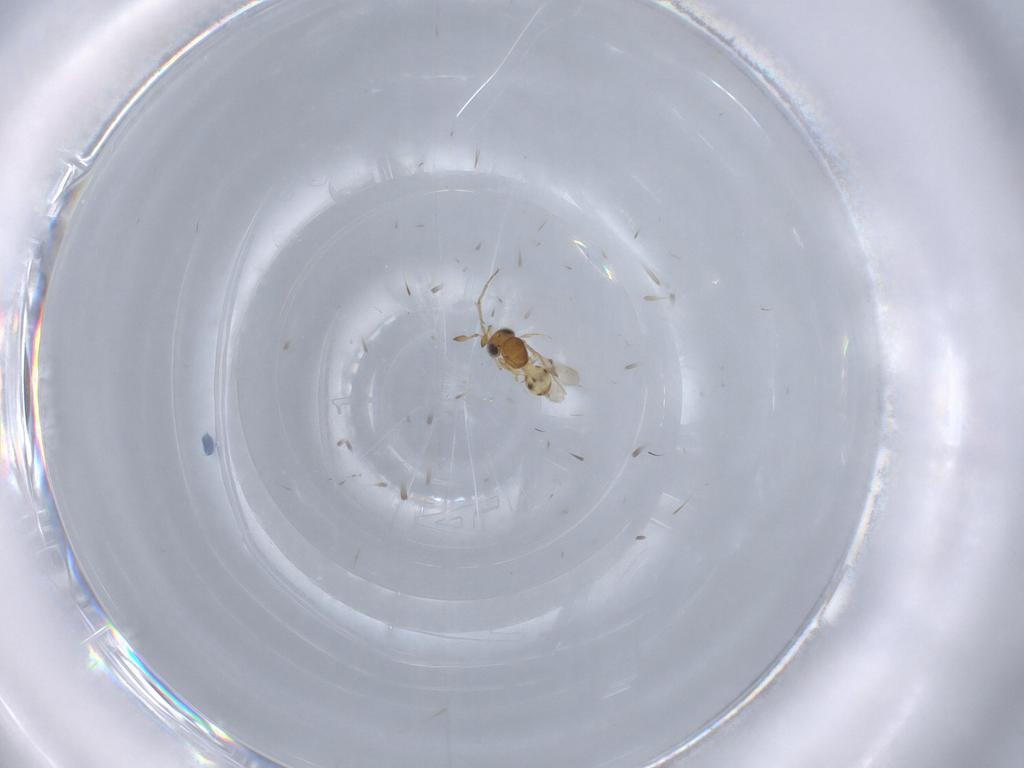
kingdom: Animalia
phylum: Arthropoda
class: Insecta
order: Hymenoptera
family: Scelionidae
